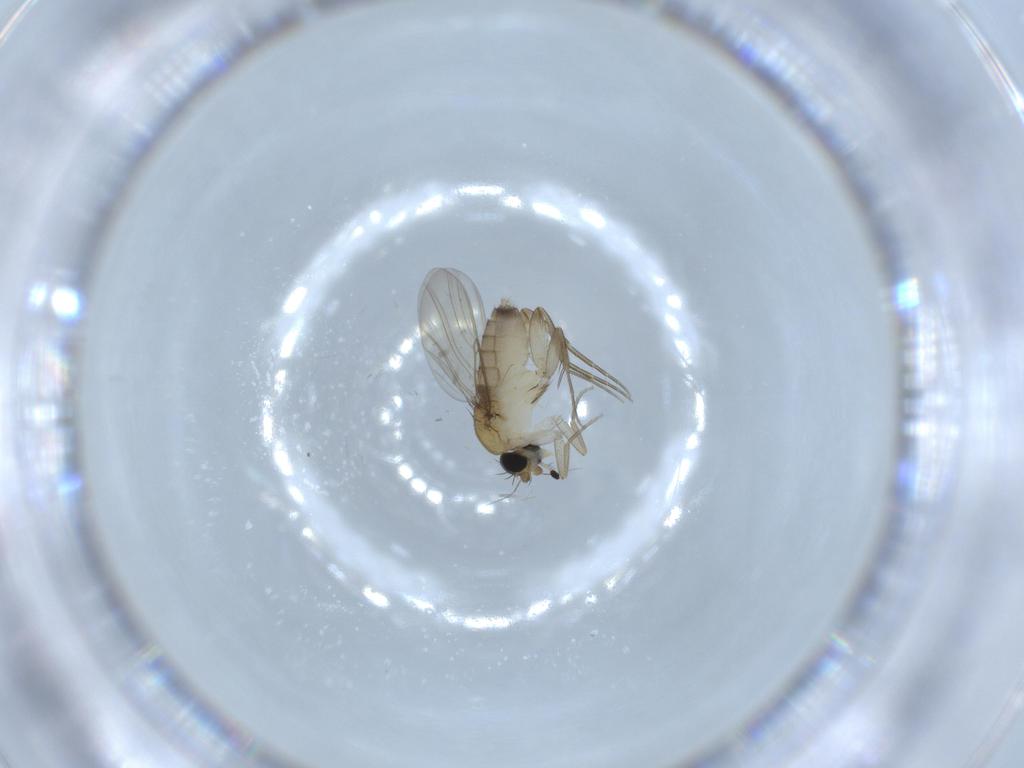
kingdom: Animalia
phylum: Arthropoda
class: Insecta
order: Diptera
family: Phoridae
